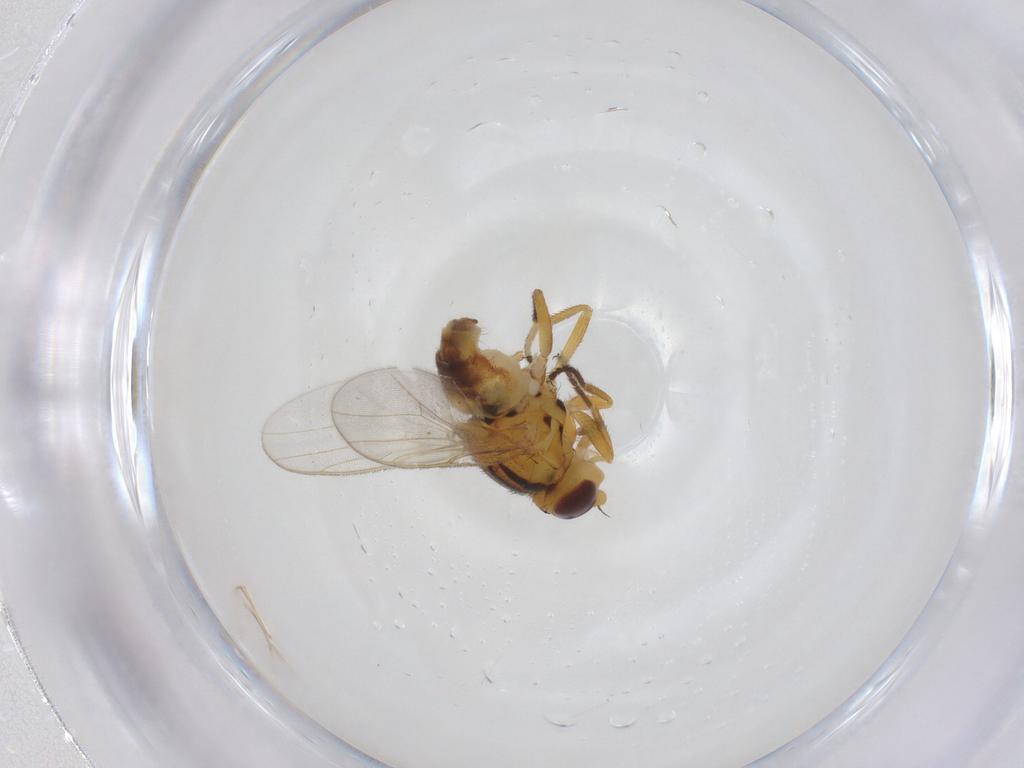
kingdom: Animalia
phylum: Arthropoda
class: Insecta
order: Diptera
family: Chloropidae
